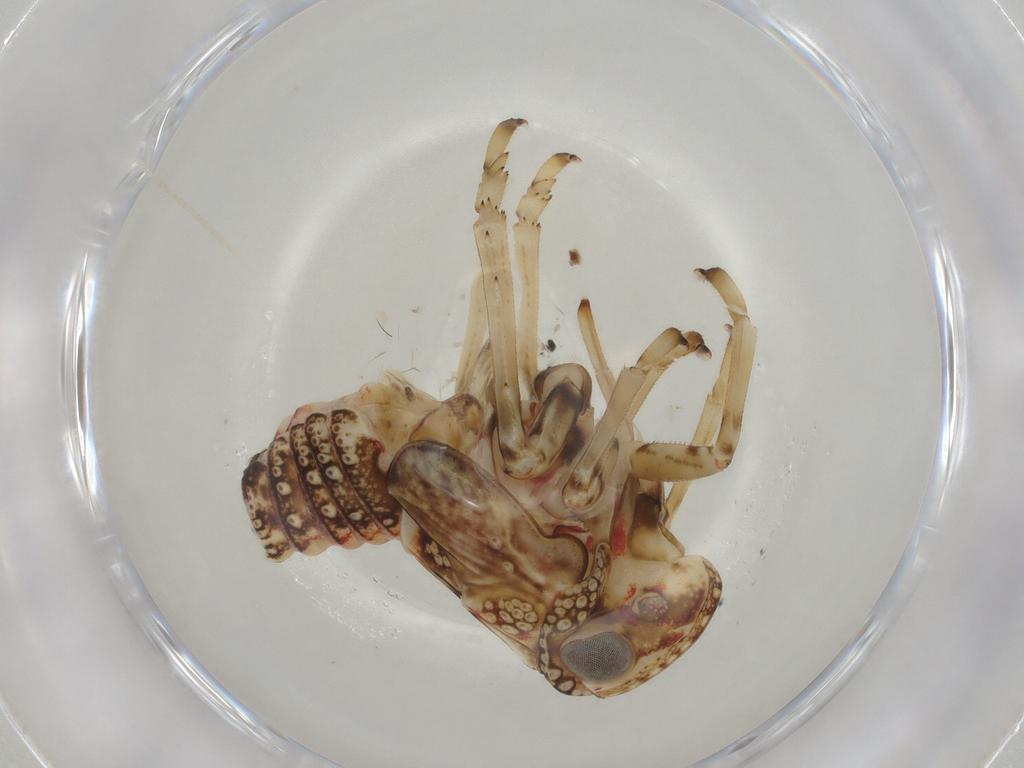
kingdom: Animalia
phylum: Arthropoda
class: Insecta
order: Hemiptera
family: Tropiduchidae
